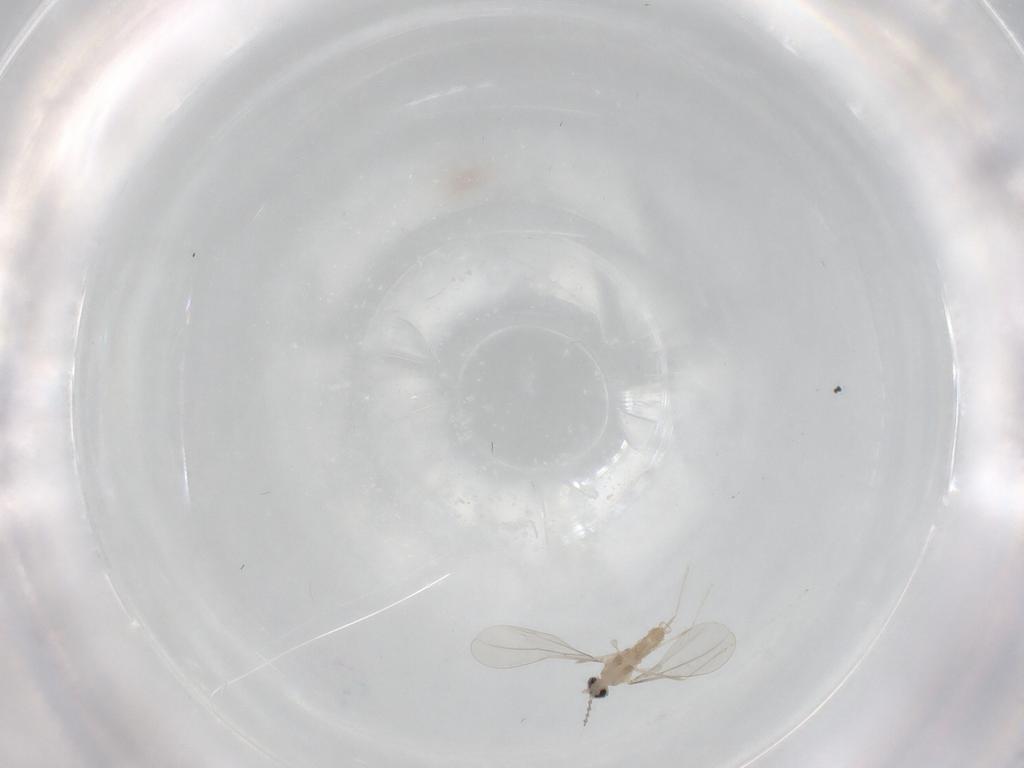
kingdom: Animalia
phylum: Arthropoda
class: Insecta
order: Diptera
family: Cecidomyiidae
